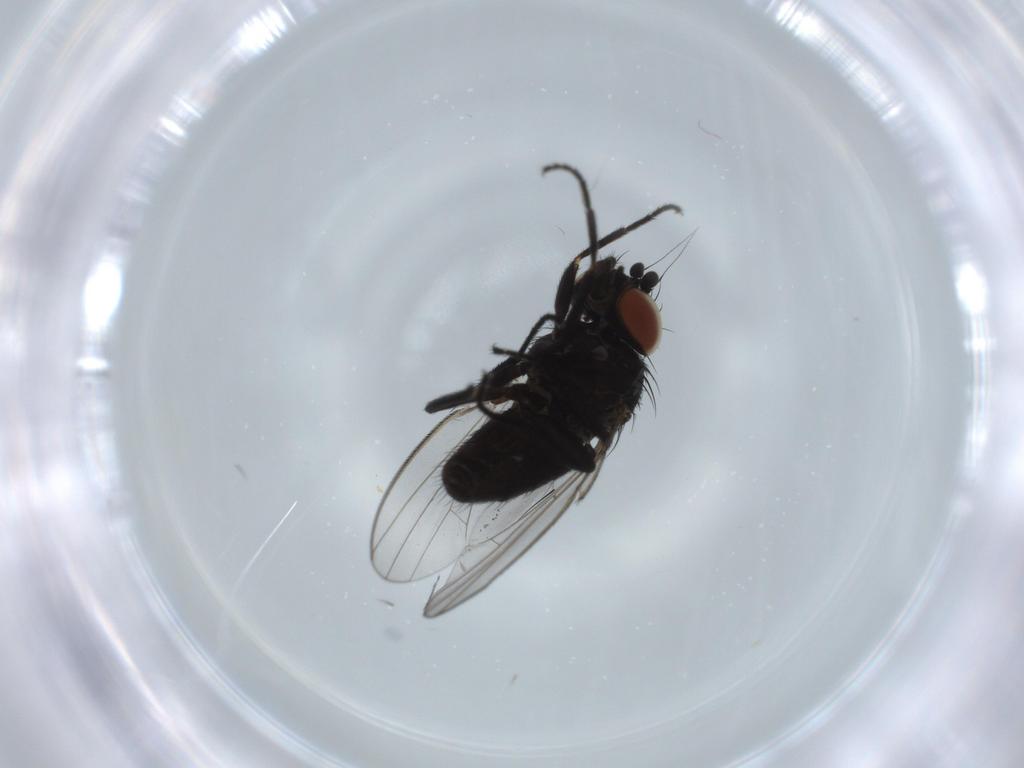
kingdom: Animalia
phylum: Arthropoda
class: Insecta
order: Diptera
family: Milichiidae
